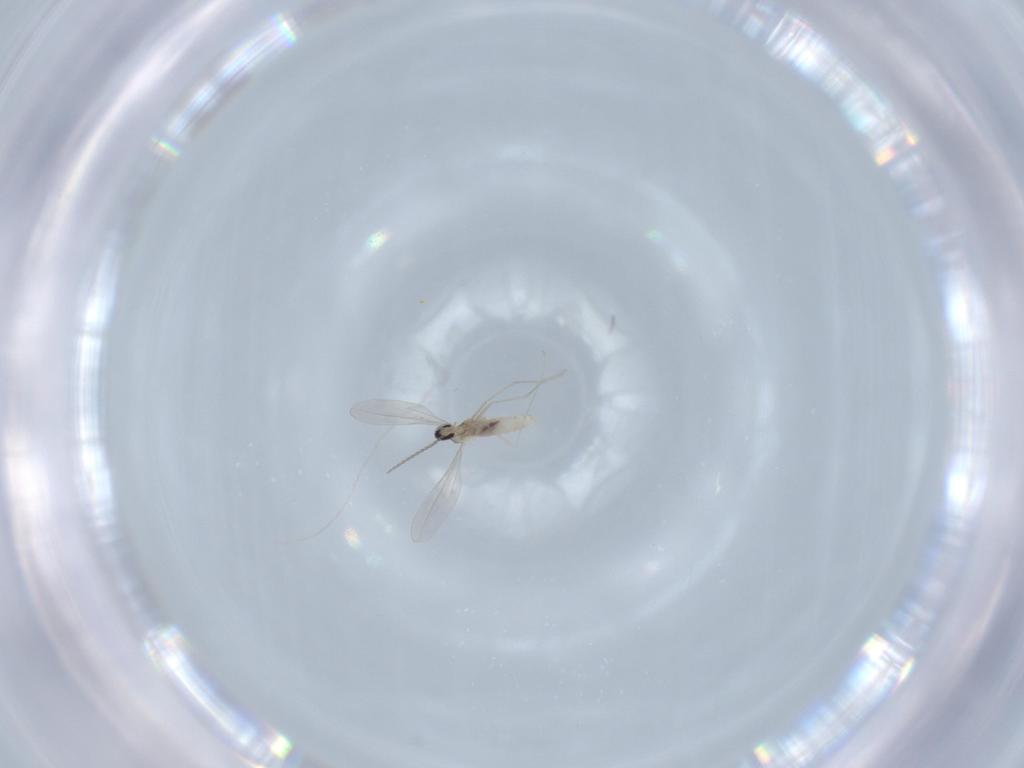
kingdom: Animalia
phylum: Arthropoda
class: Insecta
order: Diptera
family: Cecidomyiidae
